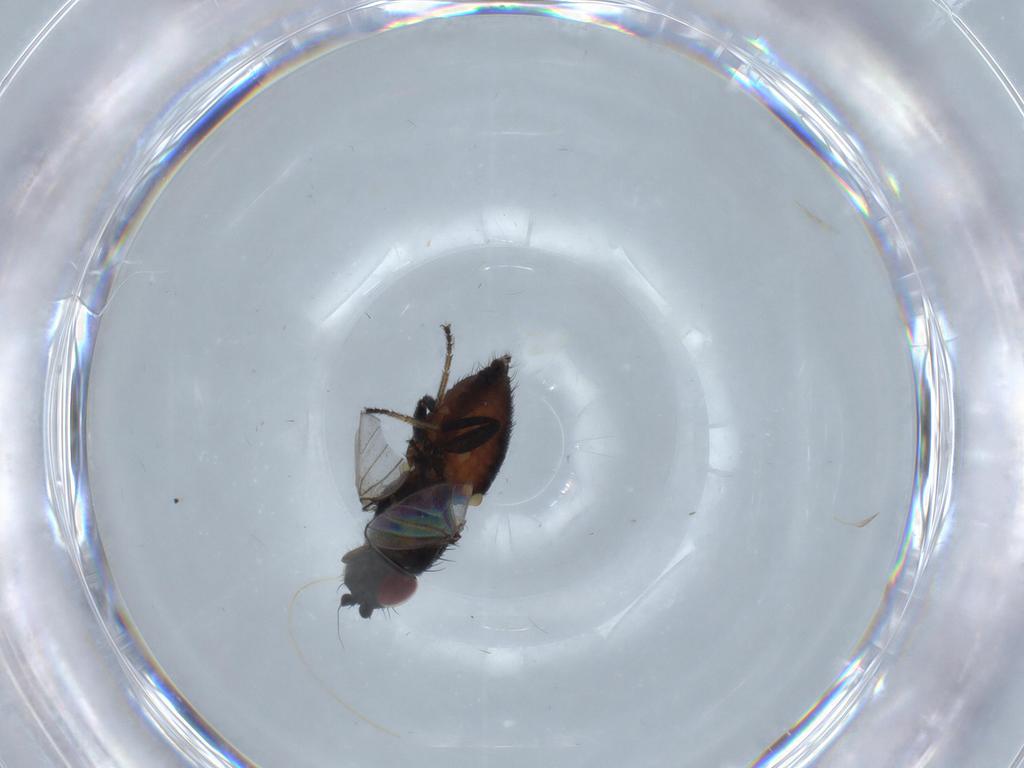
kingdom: Animalia
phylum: Arthropoda
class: Insecta
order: Diptera
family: Milichiidae
